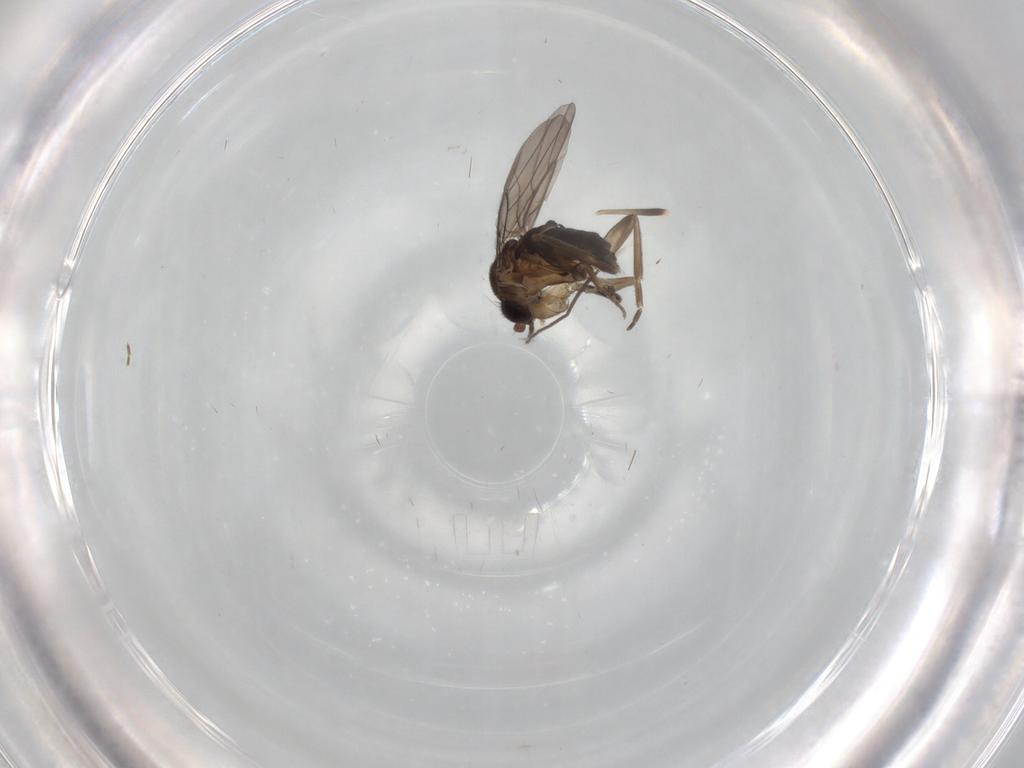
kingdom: Animalia
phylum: Arthropoda
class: Insecta
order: Diptera
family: Chironomidae
